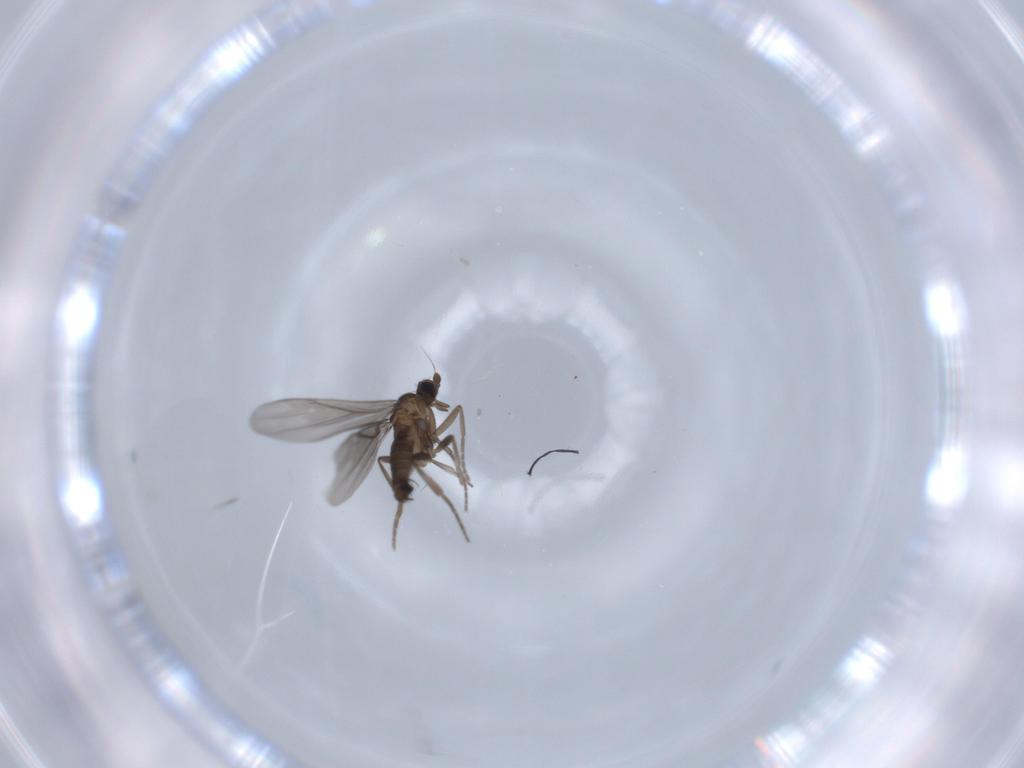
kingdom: Animalia
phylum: Arthropoda
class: Insecta
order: Diptera
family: Phoridae
